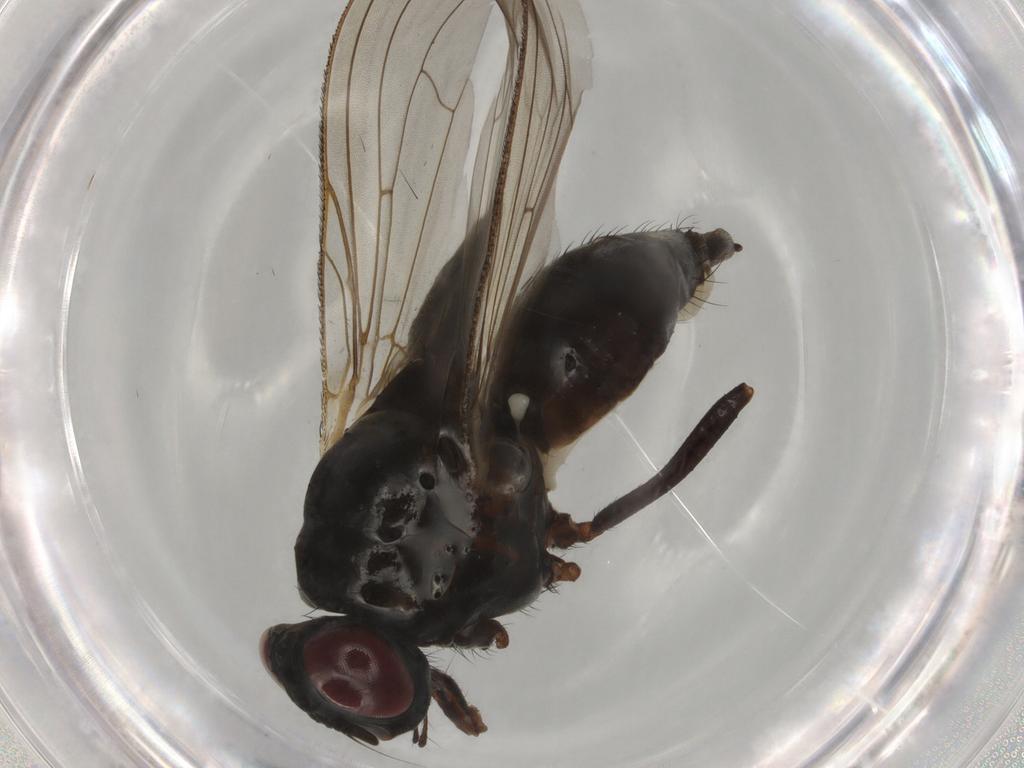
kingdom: Animalia
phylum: Arthropoda
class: Insecta
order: Diptera
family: Anthomyiidae
